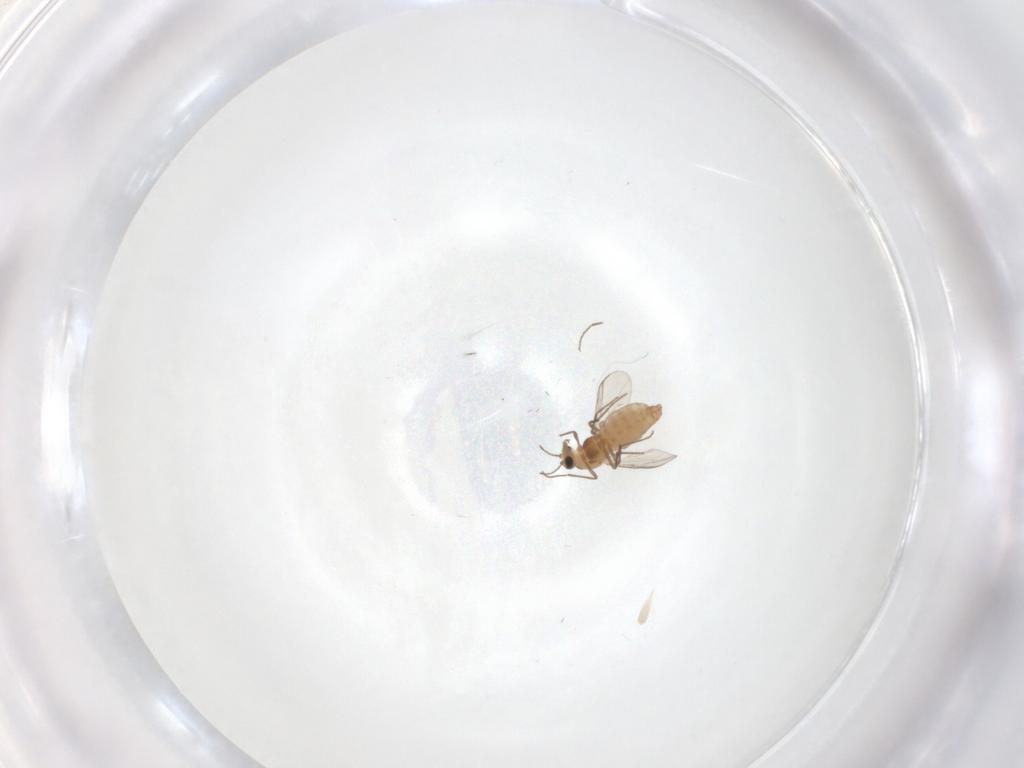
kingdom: Animalia
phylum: Arthropoda
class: Insecta
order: Diptera
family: Chironomidae
